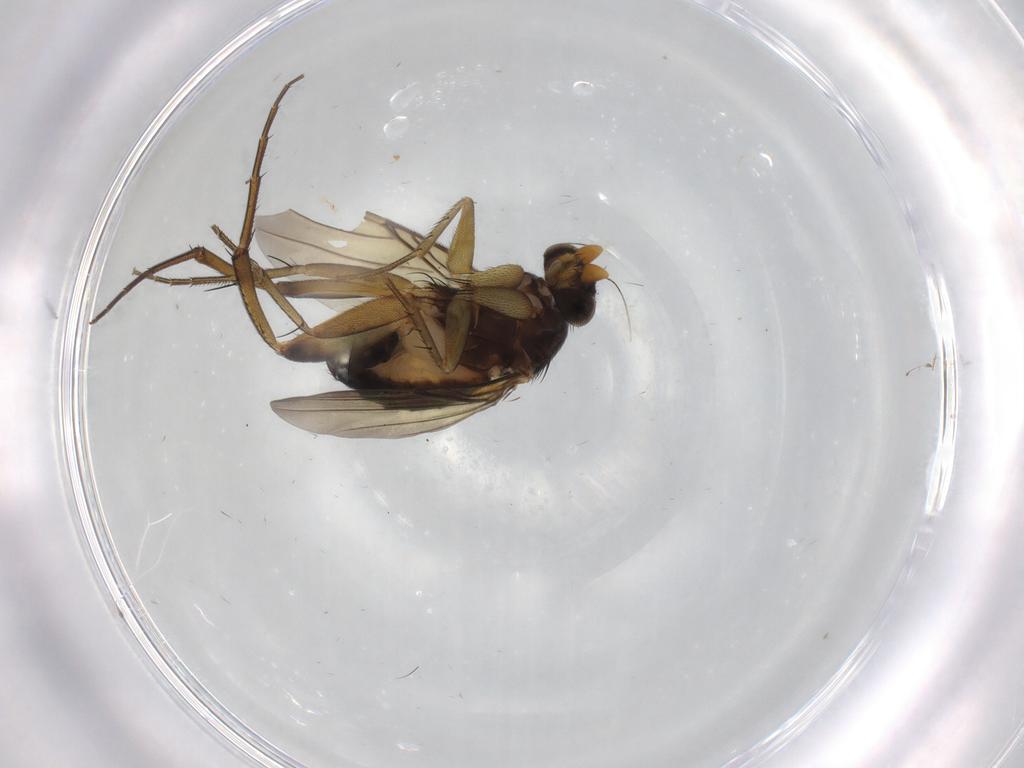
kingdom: Animalia
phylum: Arthropoda
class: Insecta
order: Diptera
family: Phoridae
